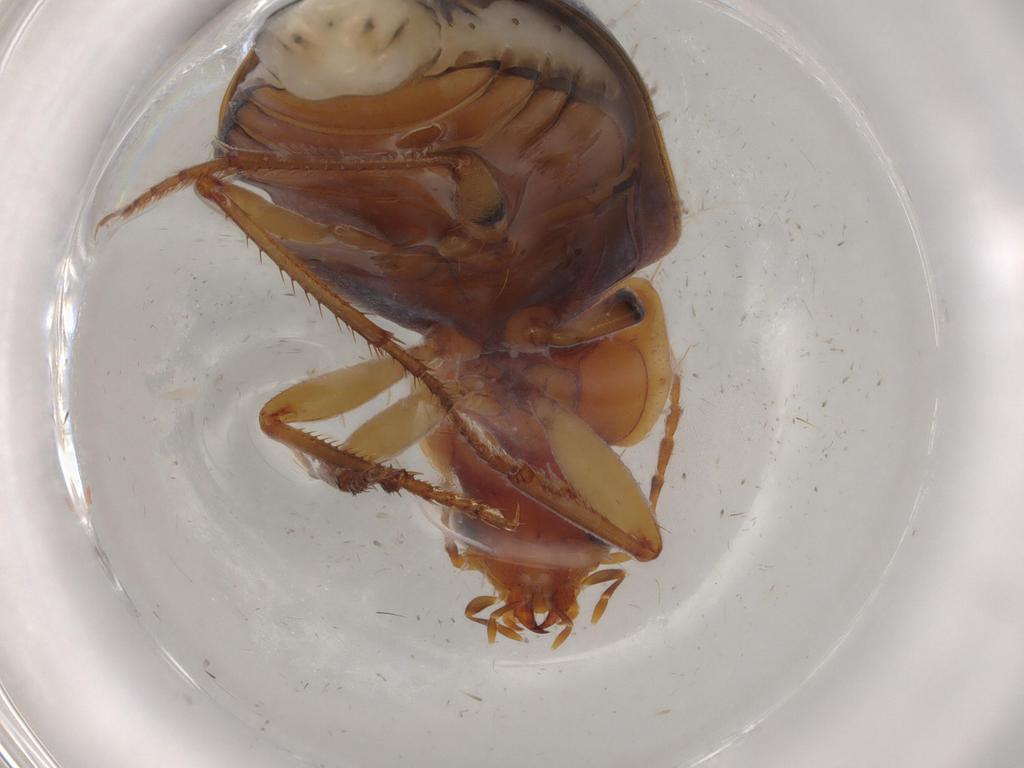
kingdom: Animalia
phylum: Arthropoda
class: Insecta
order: Coleoptera
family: Carabidae
